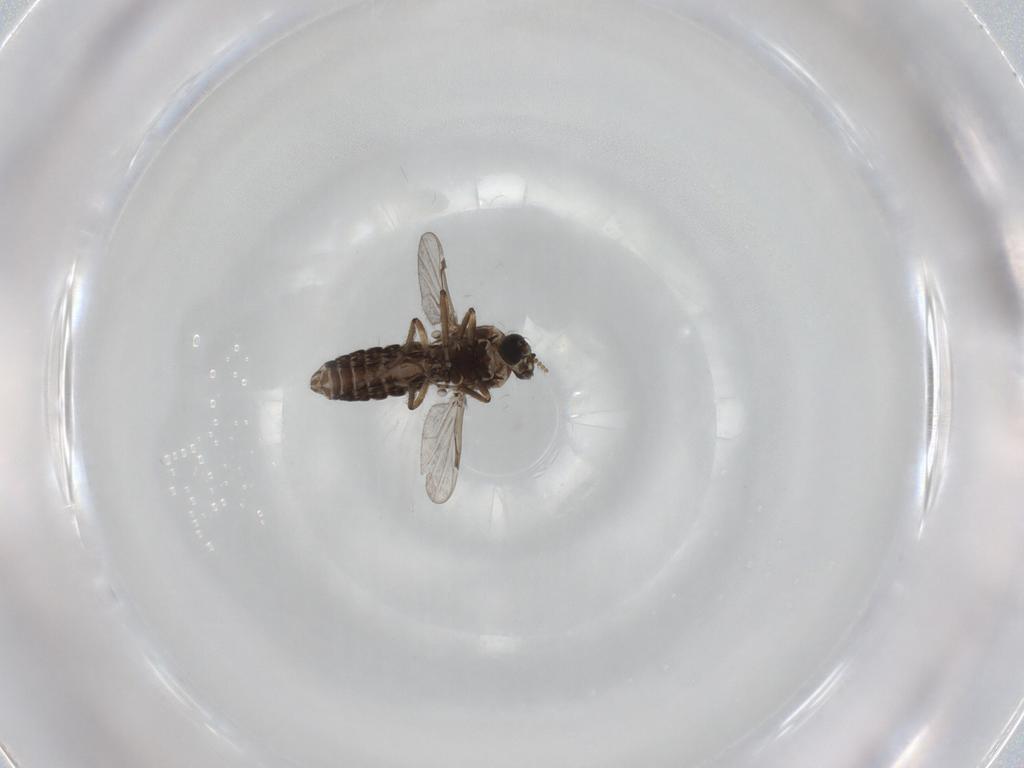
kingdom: Animalia
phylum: Arthropoda
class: Insecta
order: Diptera
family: Ceratopogonidae
